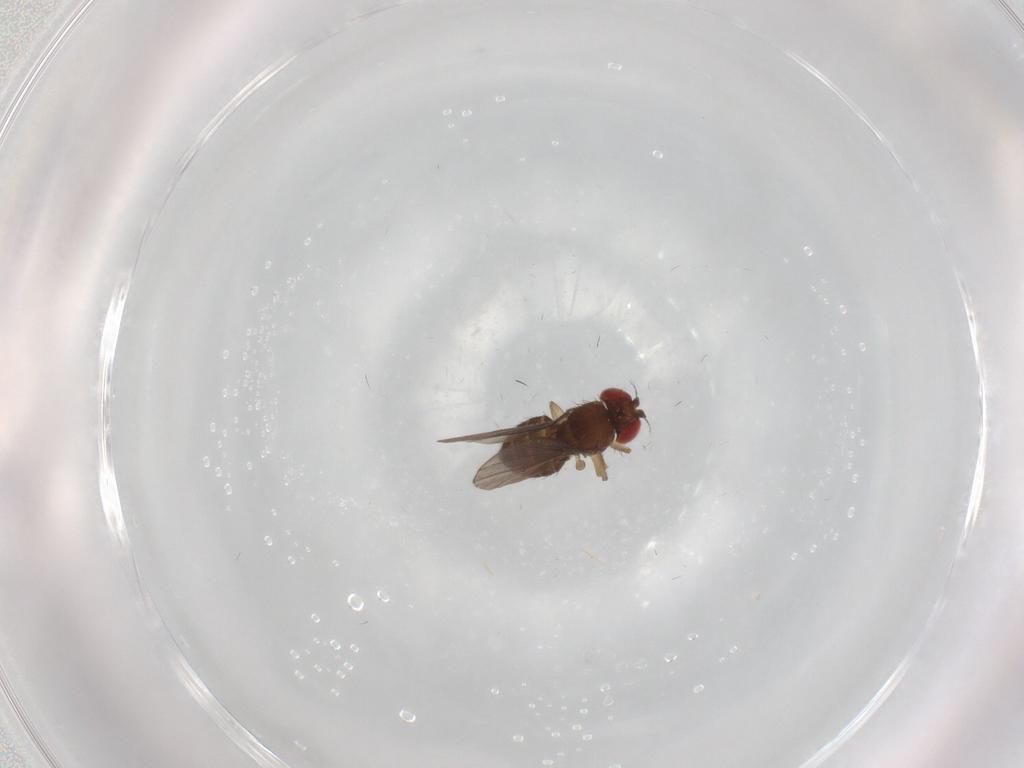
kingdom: Animalia
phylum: Arthropoda
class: Insecta
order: Diptera
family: Drosophilidae
